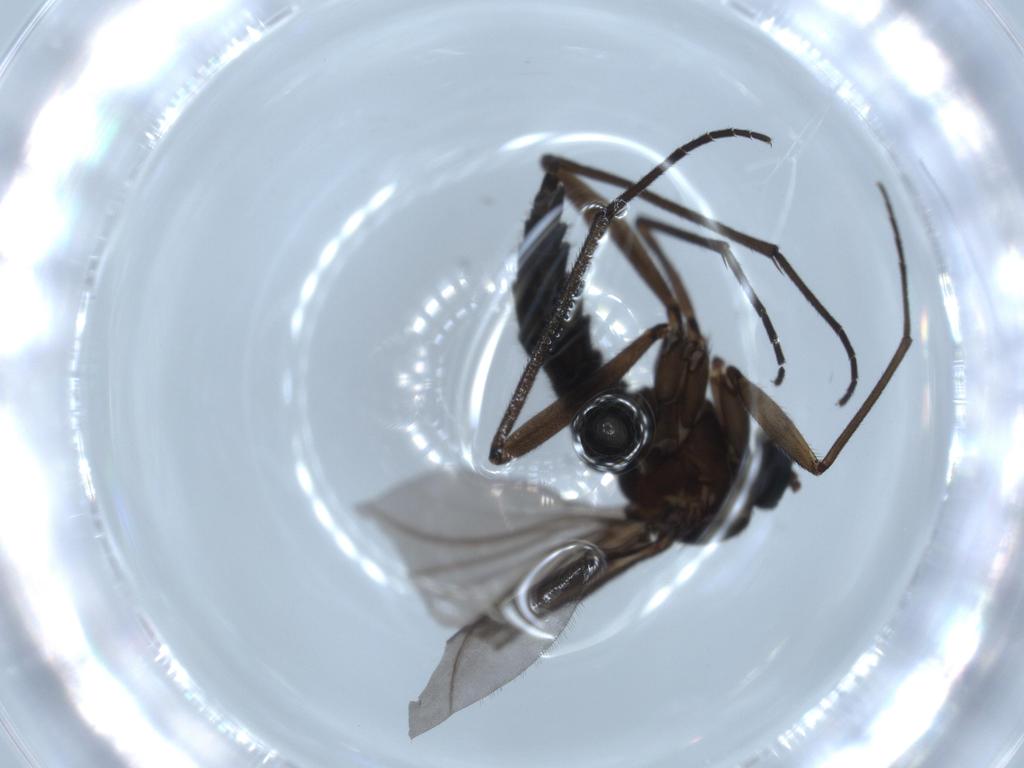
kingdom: Animalia
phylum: Arthropoda
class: Insecta
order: Diptera
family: Sciaridae
